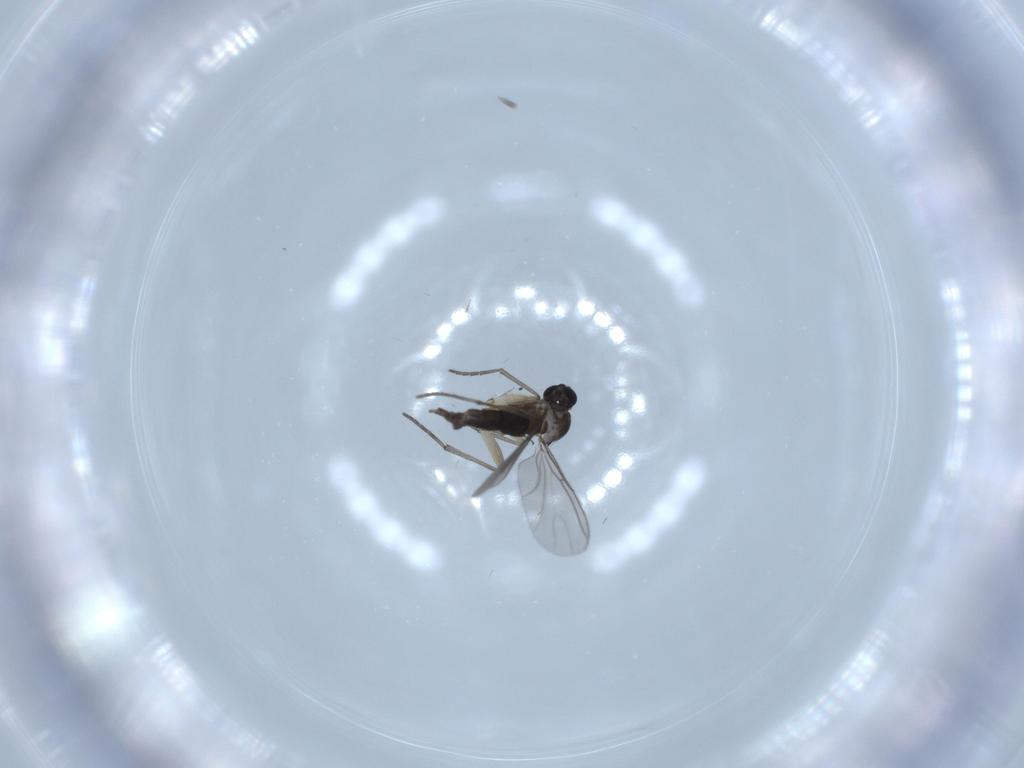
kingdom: Animalia
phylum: Arthropoda
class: Insecta
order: Diptera
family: Sciaridae
